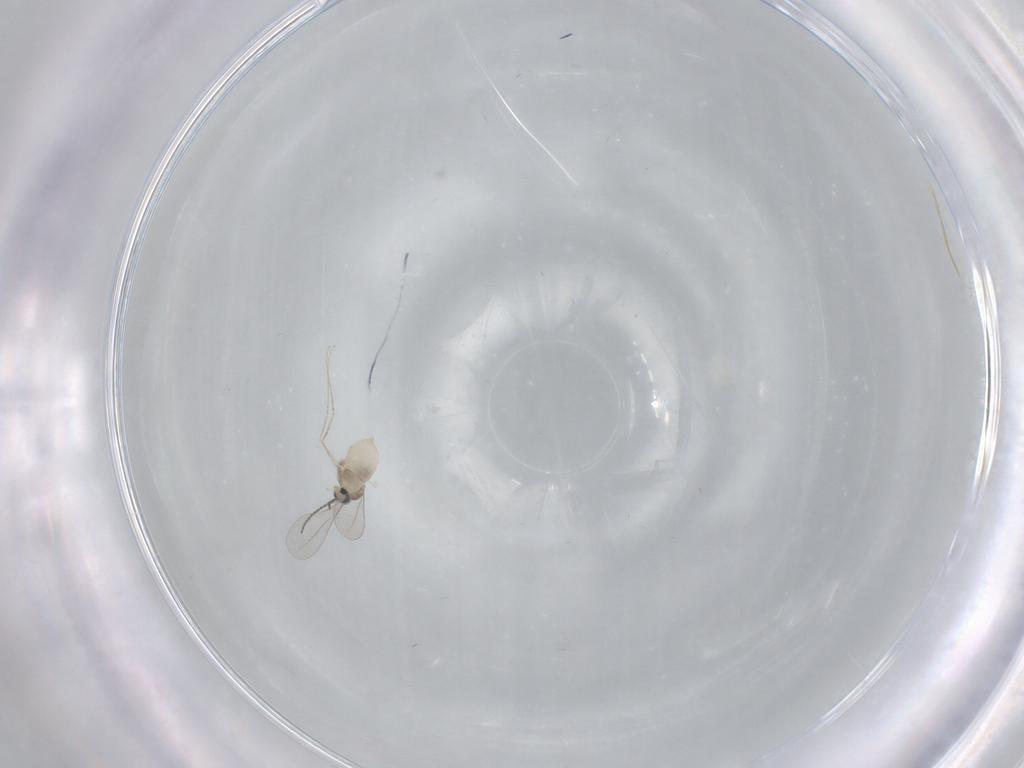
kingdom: Animalia
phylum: Arthropoda
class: Insecta
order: Diptera
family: Cecidomyiidae
